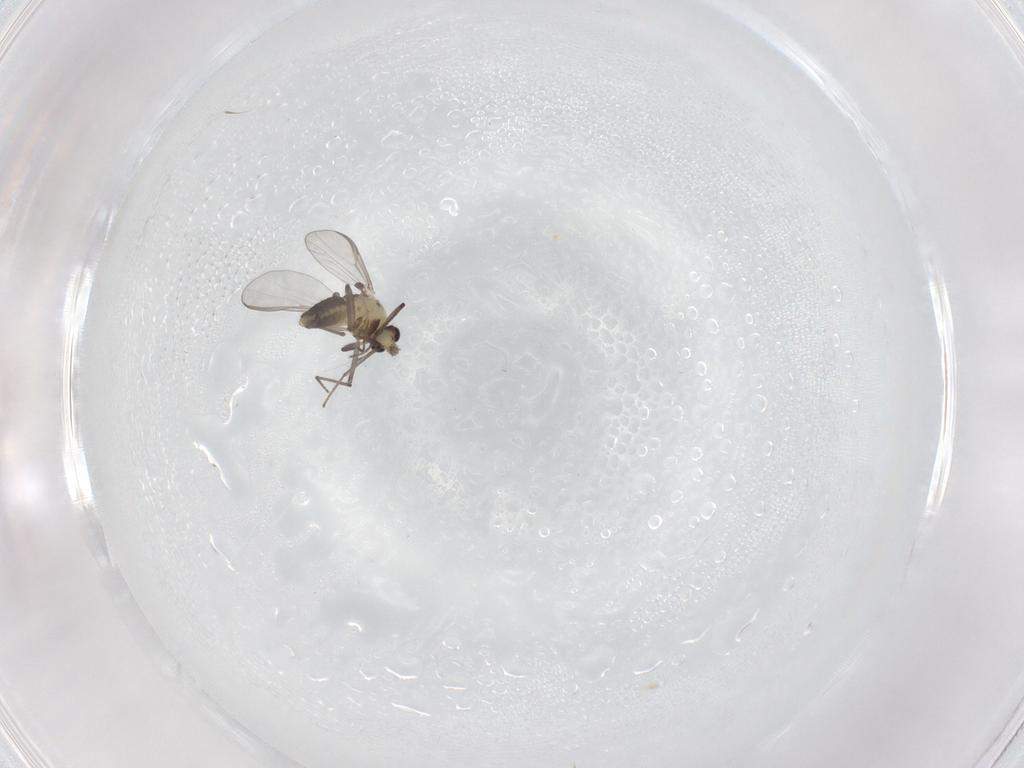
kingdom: Animalia
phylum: Arthropoda
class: Insecta
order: Diptera
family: Chironomidae
